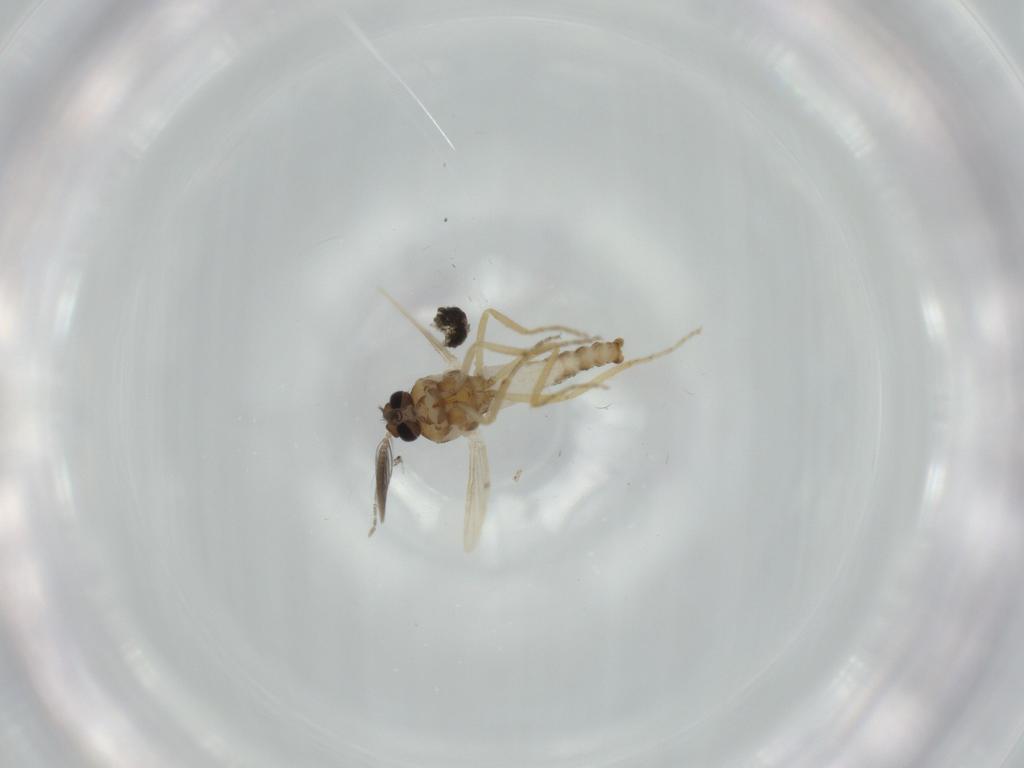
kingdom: Animalia
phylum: Arthropoda
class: Insecta
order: Diptera
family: Ceratopogonidae
